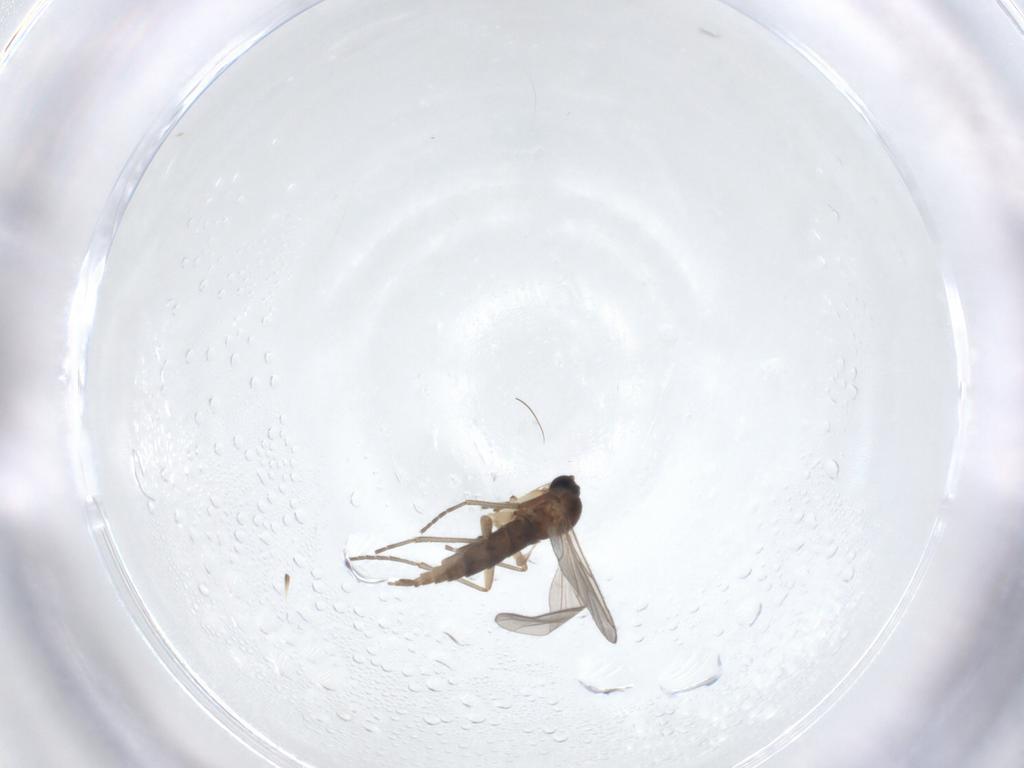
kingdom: Animalia
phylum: Arthropoda
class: Insecta
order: Diptera
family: Sciaridae
